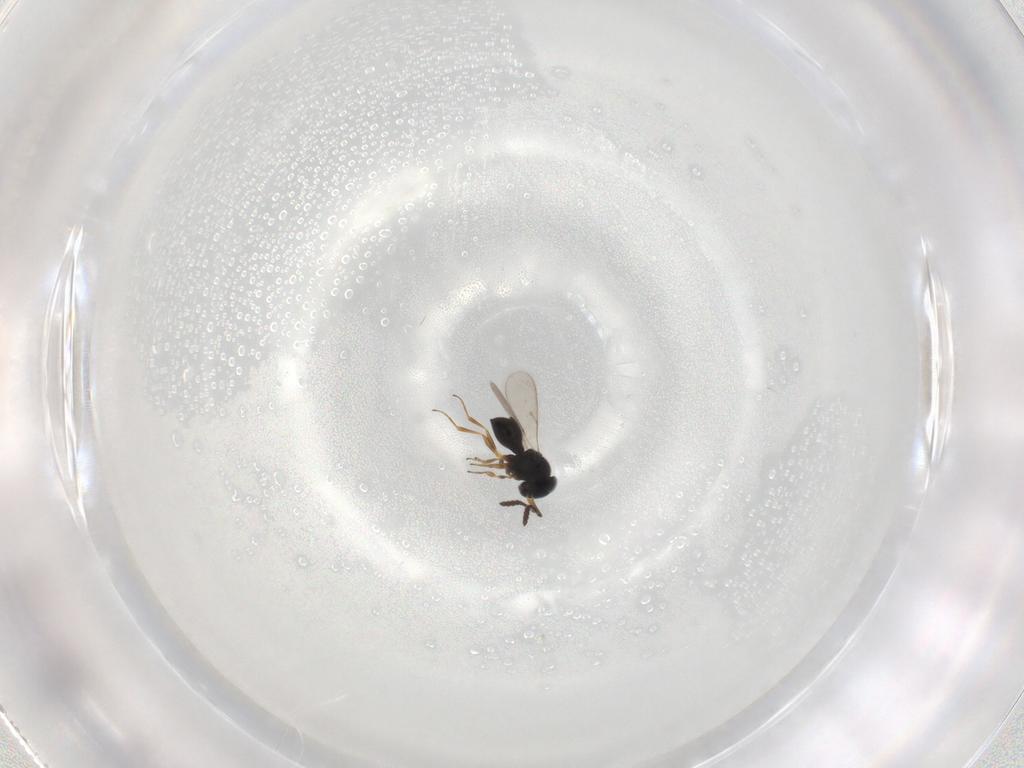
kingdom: Animalia
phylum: Arthropoda
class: Insecta
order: Hymenoptera
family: Scelionidae
